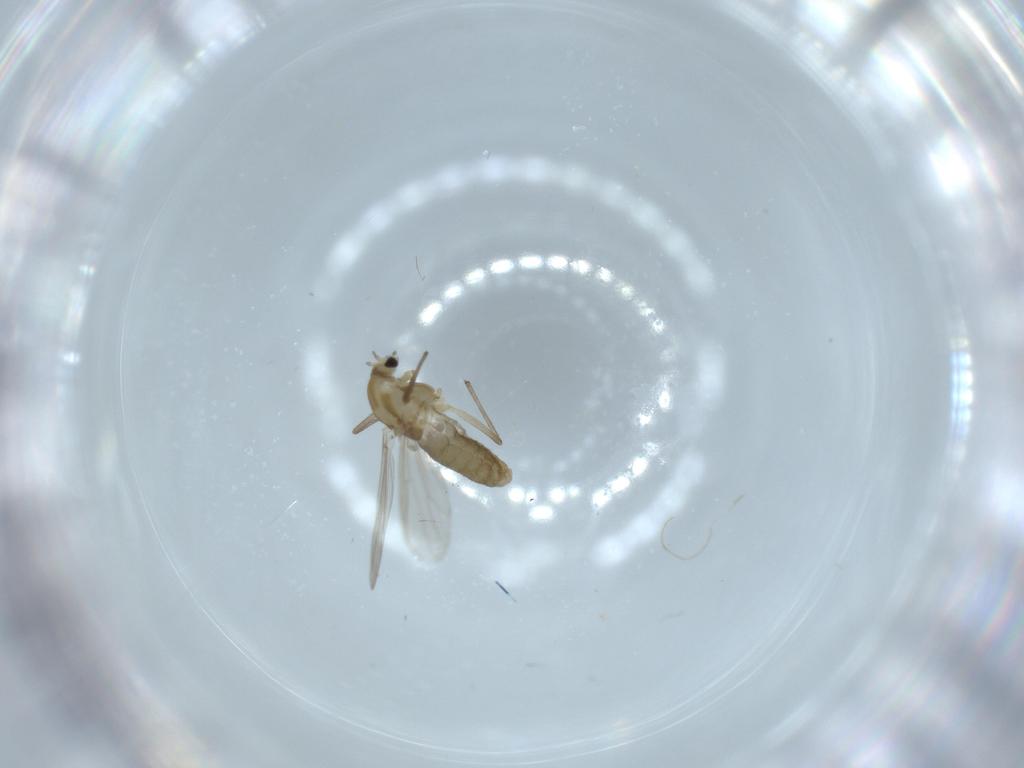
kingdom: Animalia
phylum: Arthropoda
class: Insecta
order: Diptera
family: Chironomidae
